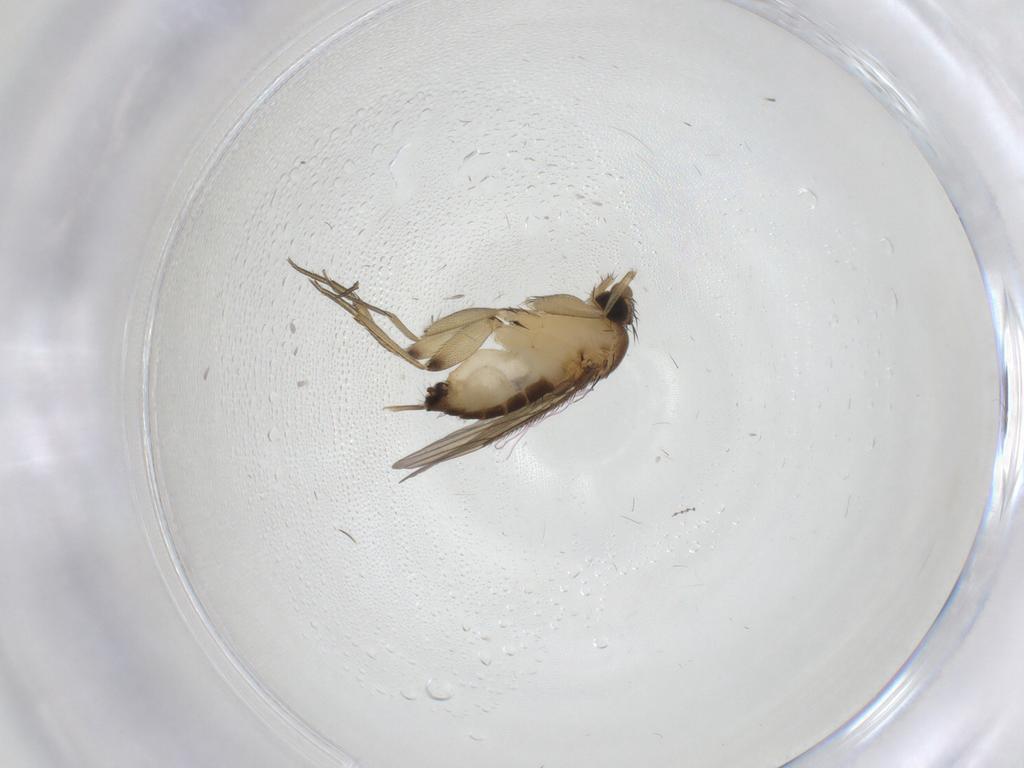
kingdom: Animalia
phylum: Arthropoda
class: Insecta
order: Diptera
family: Phoridae
